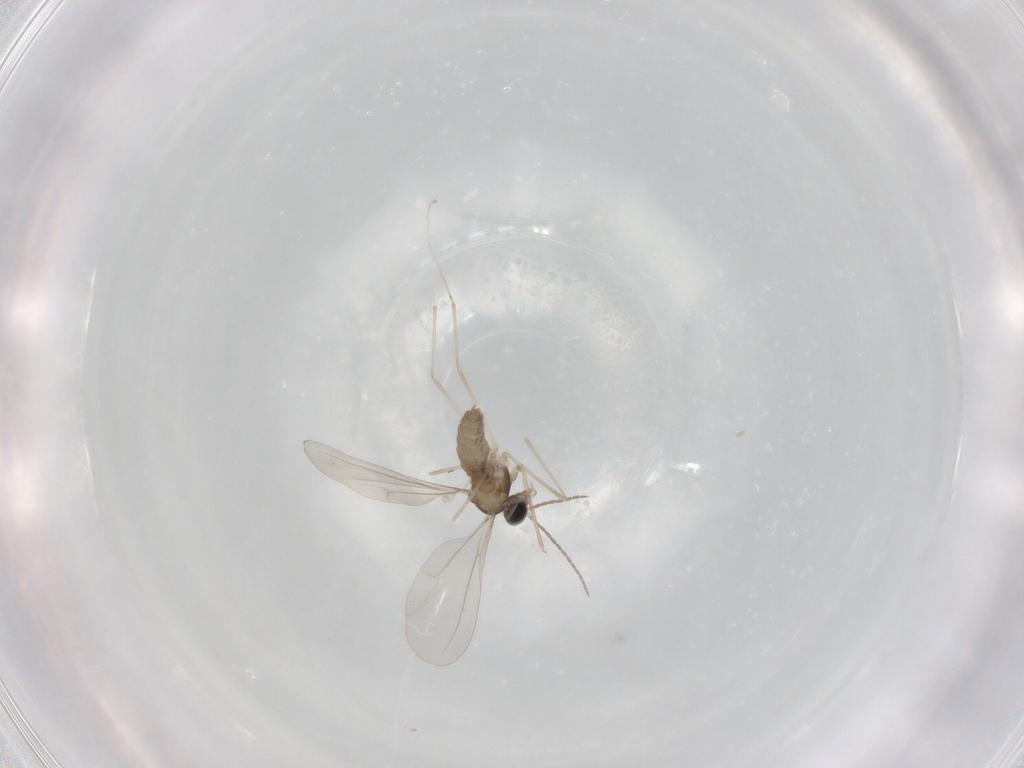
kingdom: Animalia
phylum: Arthropoda
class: Insecta
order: Diptera
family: Cecidomyiidae
